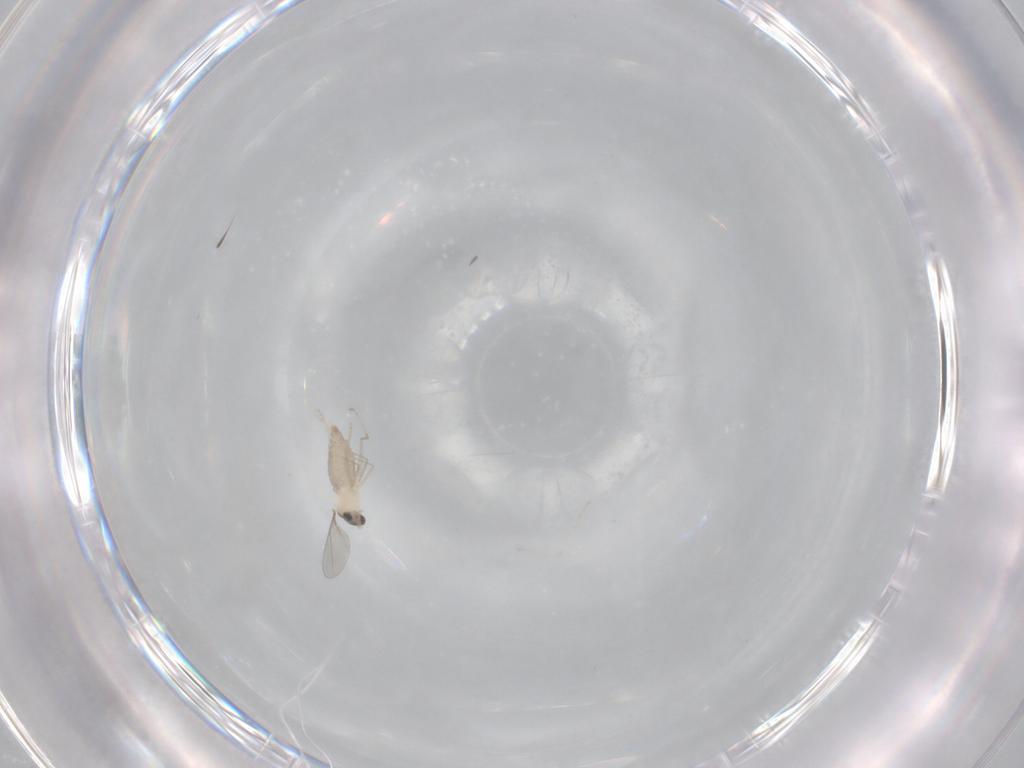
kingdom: Animalia
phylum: Arthropoda
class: Insecta
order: Diptera
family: Cecidomyiidae
